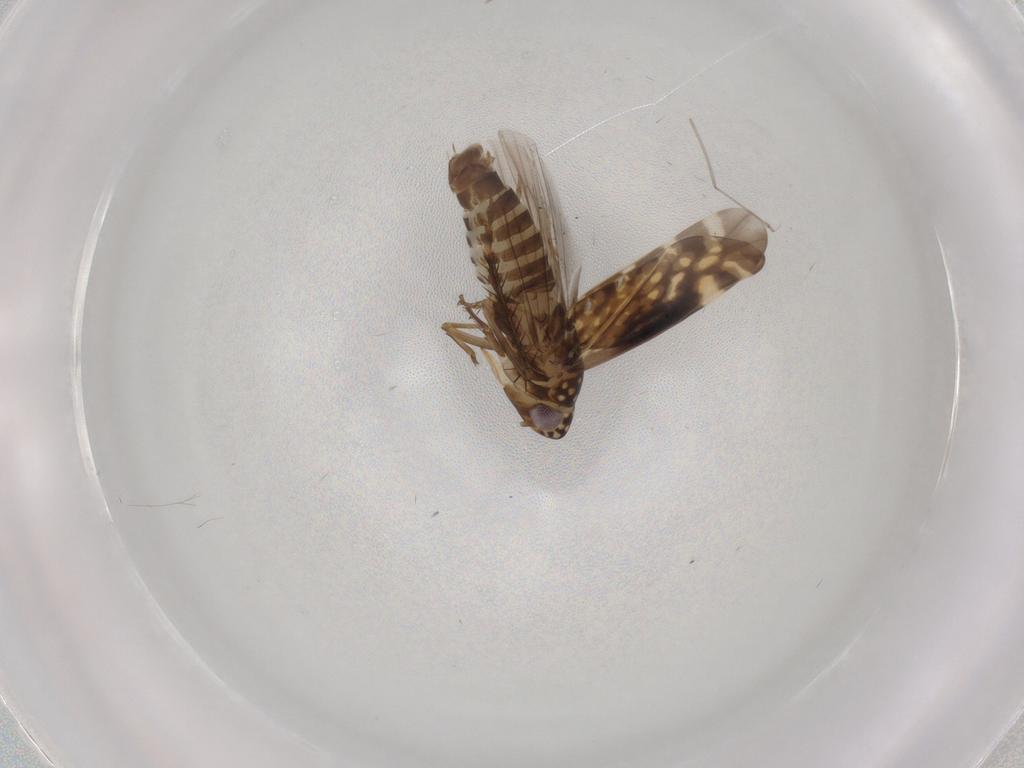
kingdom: Animalia
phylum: Arthropoda
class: Insecta
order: Hemiptera
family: Cicadellidae
